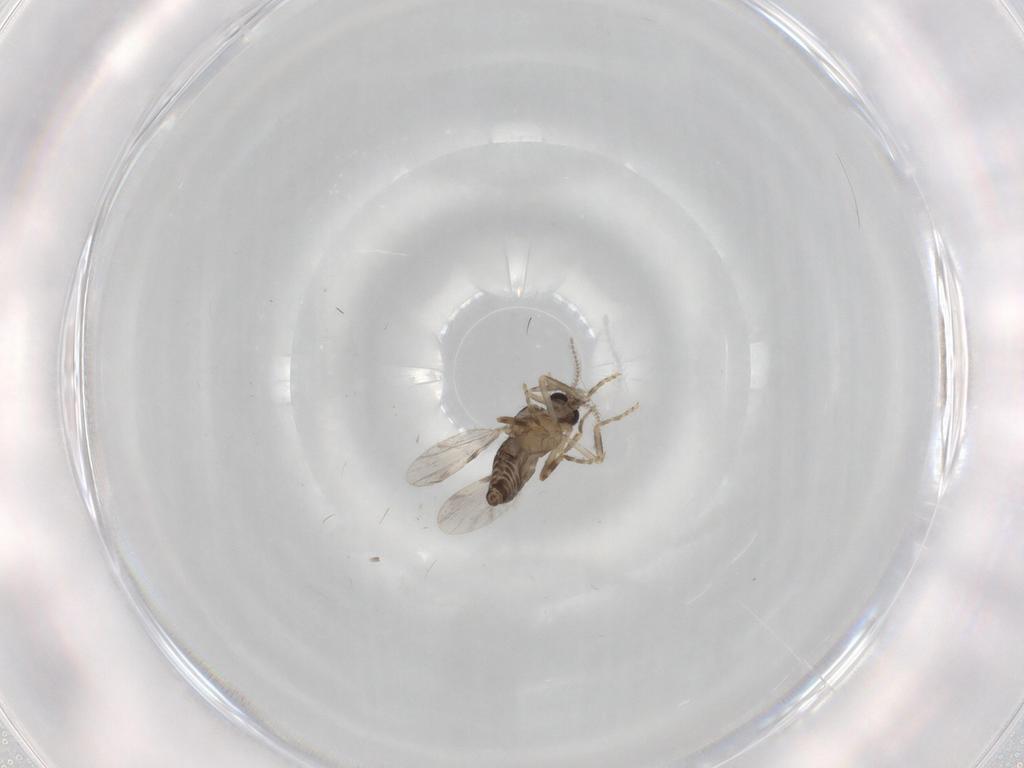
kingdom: Animalia
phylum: Arthropoda
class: Insecta
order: Diptera
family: Ceratopogonidae
